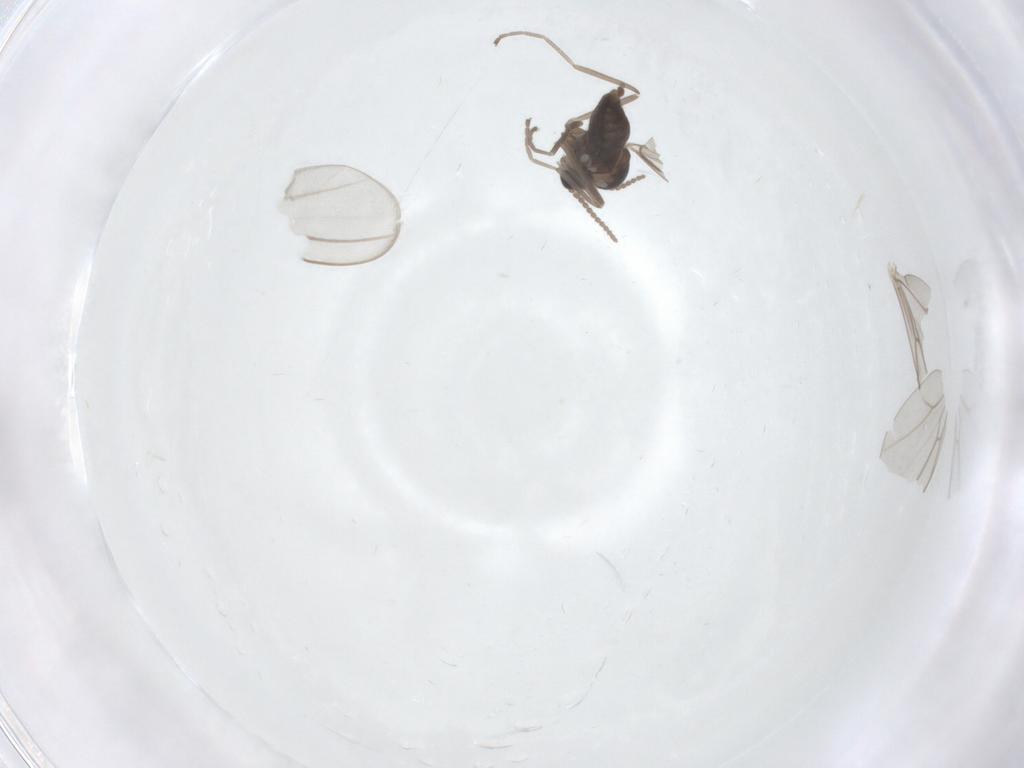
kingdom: Animalia
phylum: Arthropoda
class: Insecta
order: Diptera
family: Cecidomyiidae
